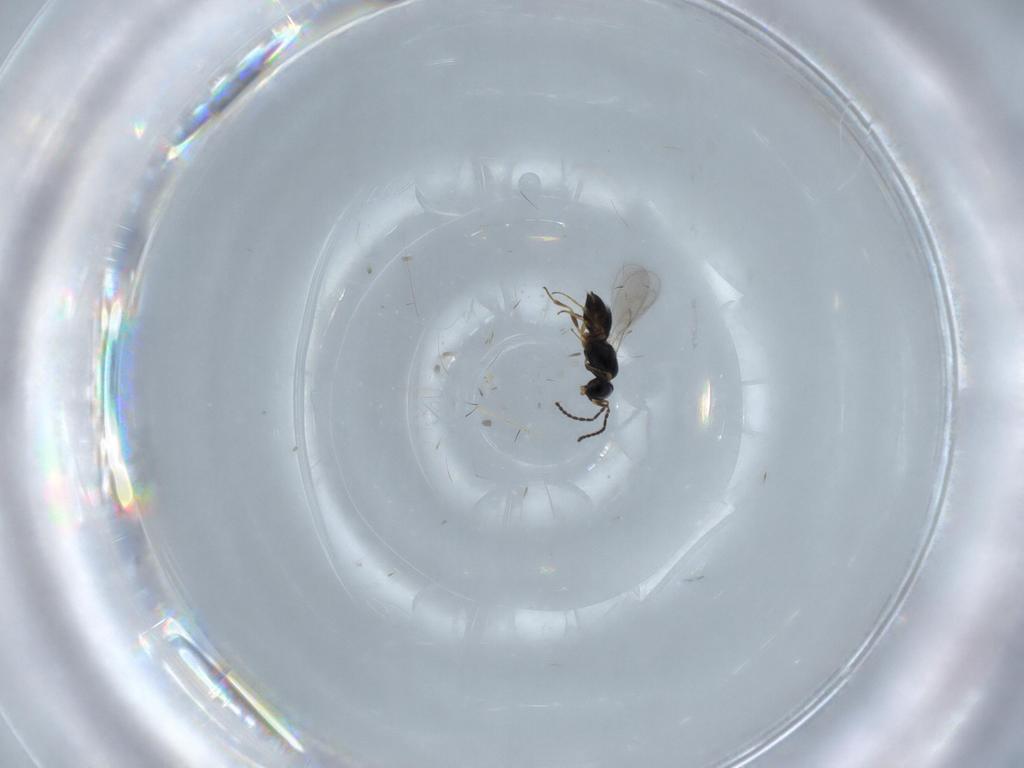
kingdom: Animalia
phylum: Arthropoda
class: Insecta
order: Hymenoptera
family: Scelionidae
